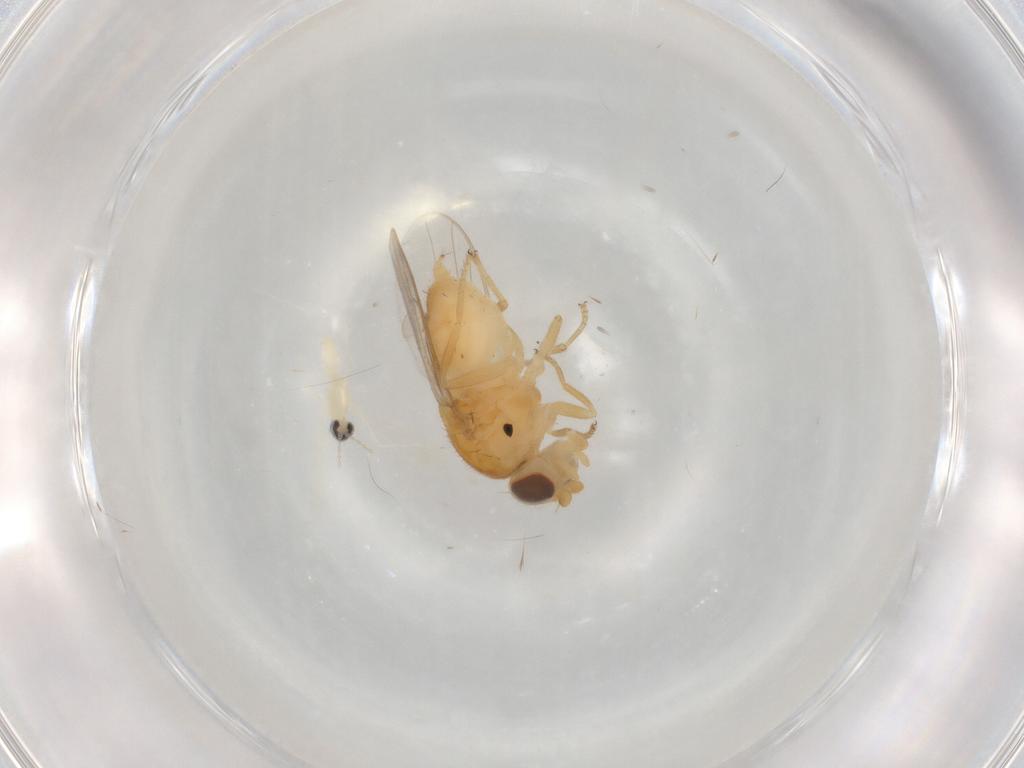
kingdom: Animalia
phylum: Arthropoda
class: Insecta
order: Diptera
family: Chloropidae
